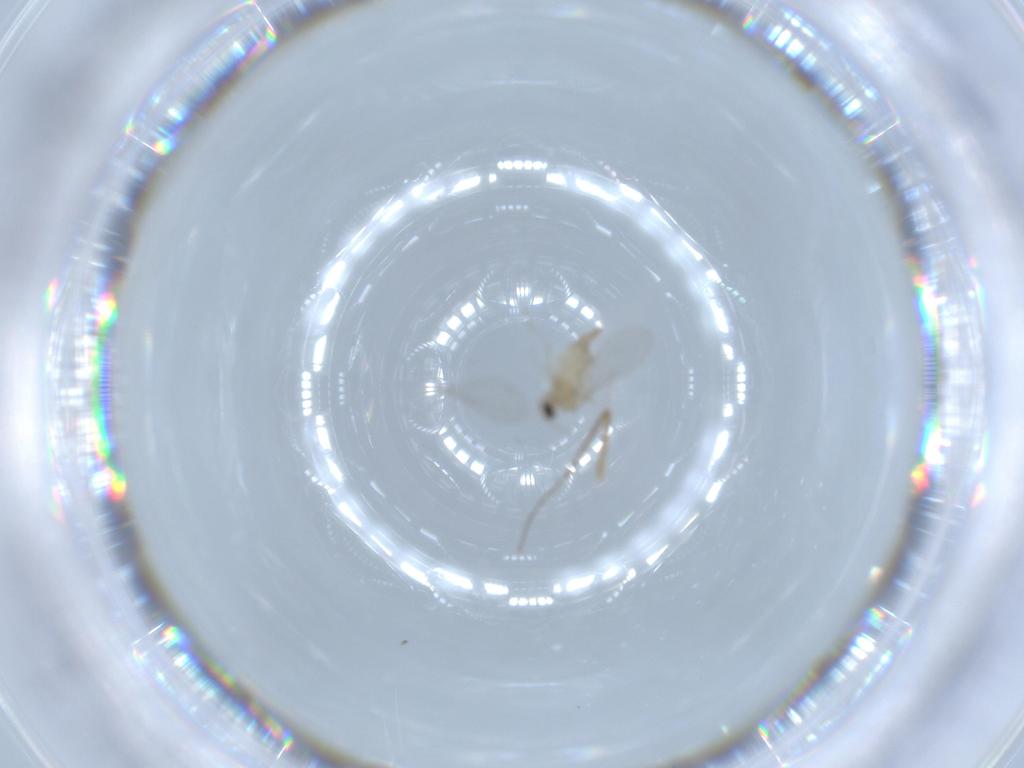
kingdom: Animalia
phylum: Arthropoda
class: Insecta
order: Diptera
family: Cecidomyiidae
